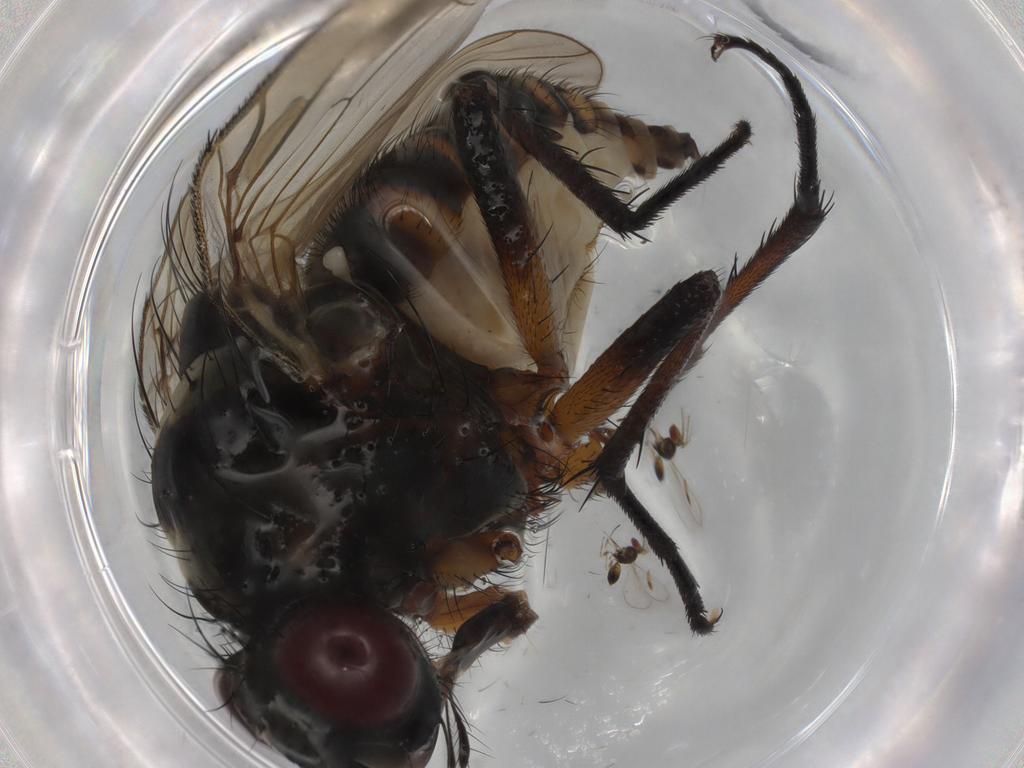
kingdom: Animalia
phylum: Arthropoda
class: Insecta
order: Diptera
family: Anthomyiidae
